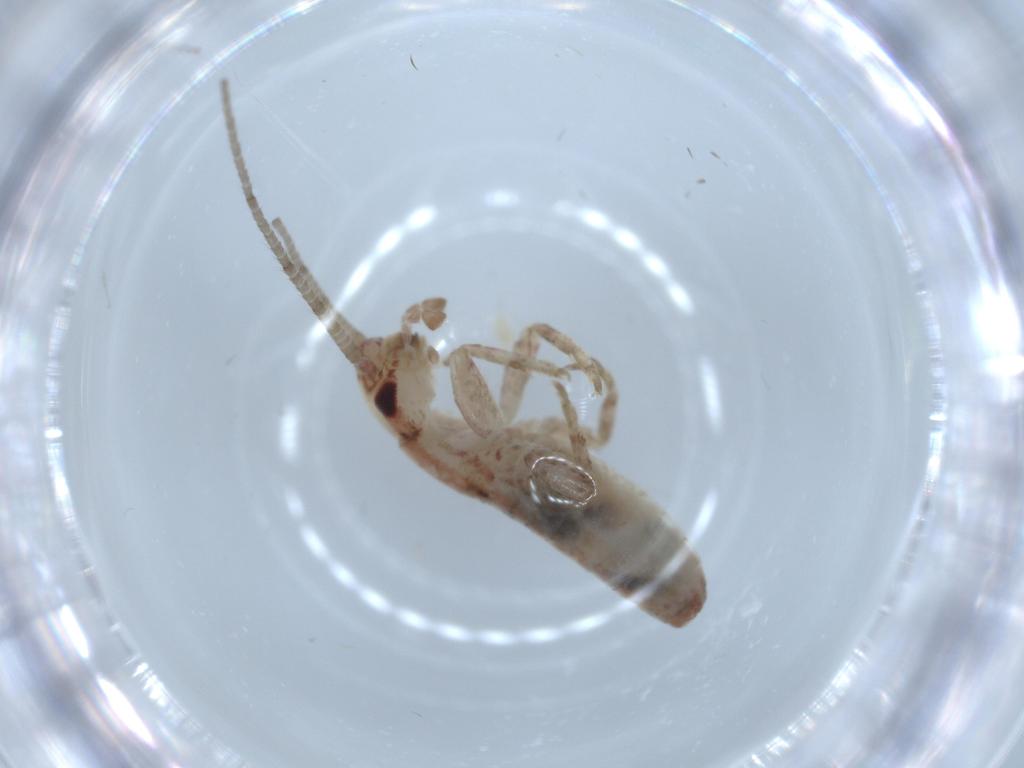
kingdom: Animalia
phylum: Arthropoda
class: Insecta
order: Orthoptera
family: Mogoplistidae
